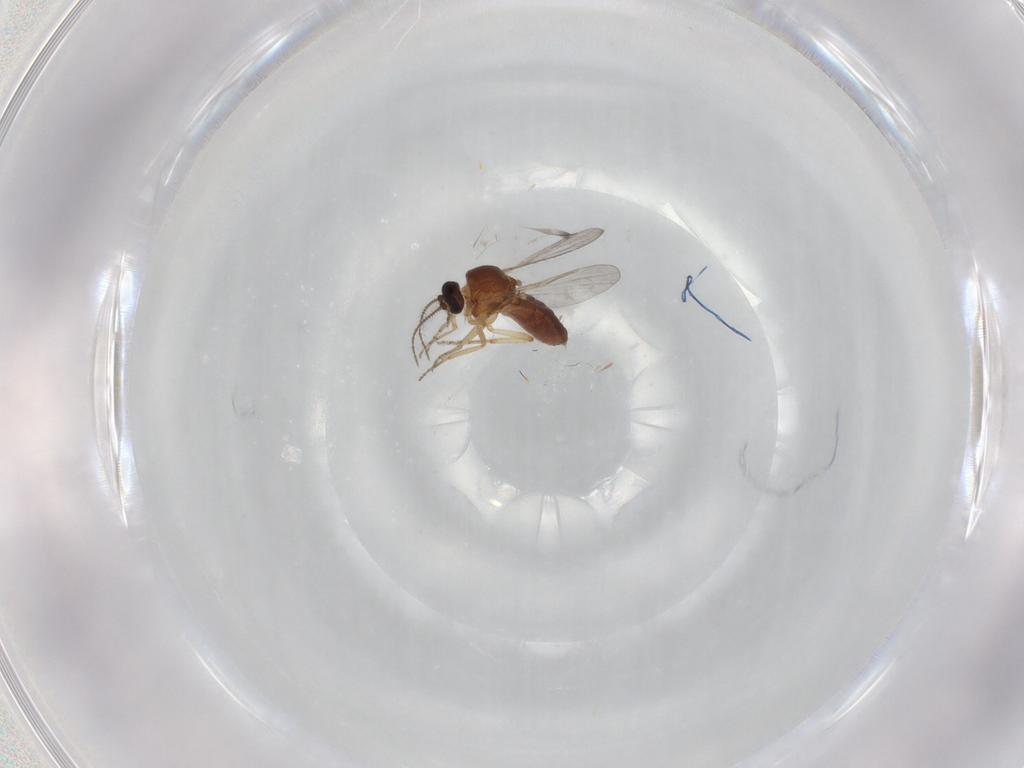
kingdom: Animalia
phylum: Arthropoda
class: Insecta
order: Diptera
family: Ceratopogonidae
